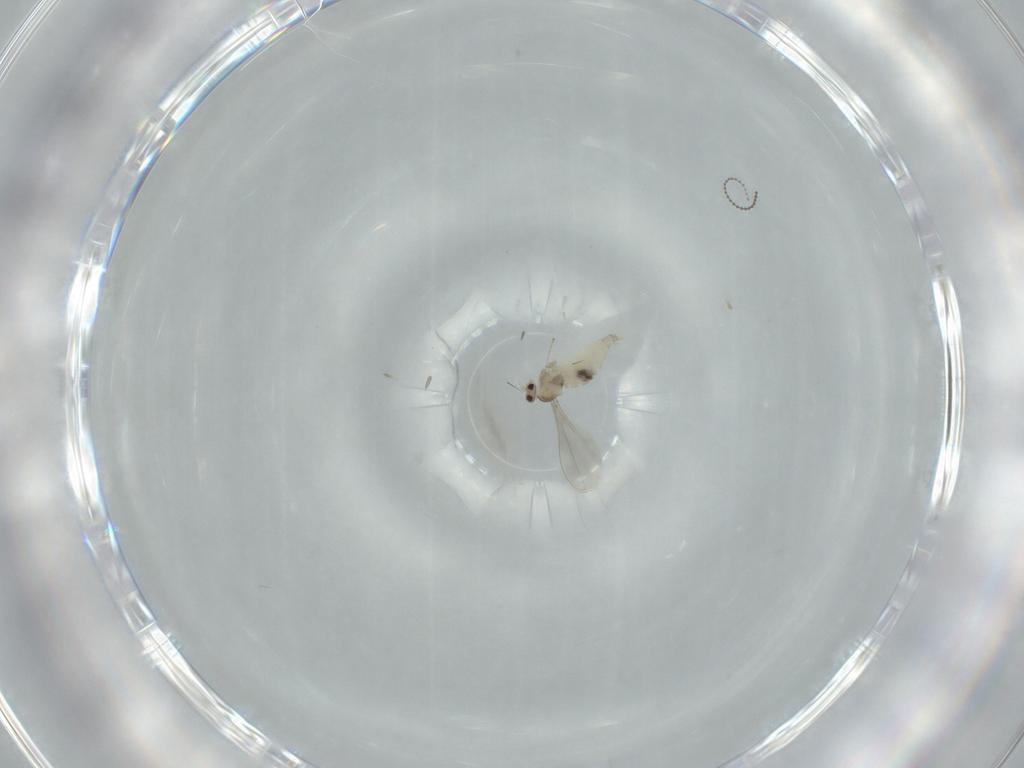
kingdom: Animalia
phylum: Arthropoda
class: Insecta
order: Diptera
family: Cecidomyiidae
